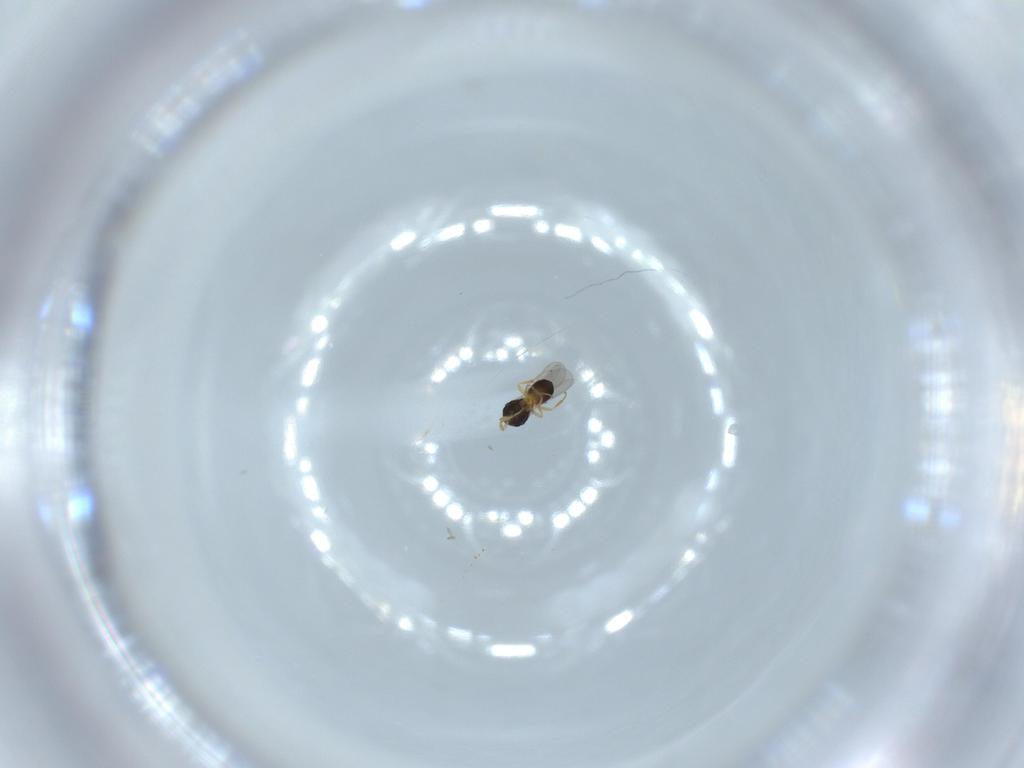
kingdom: Animalia
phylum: Arthropoda
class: Insecta
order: Hymenoptera
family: Scelionidae
